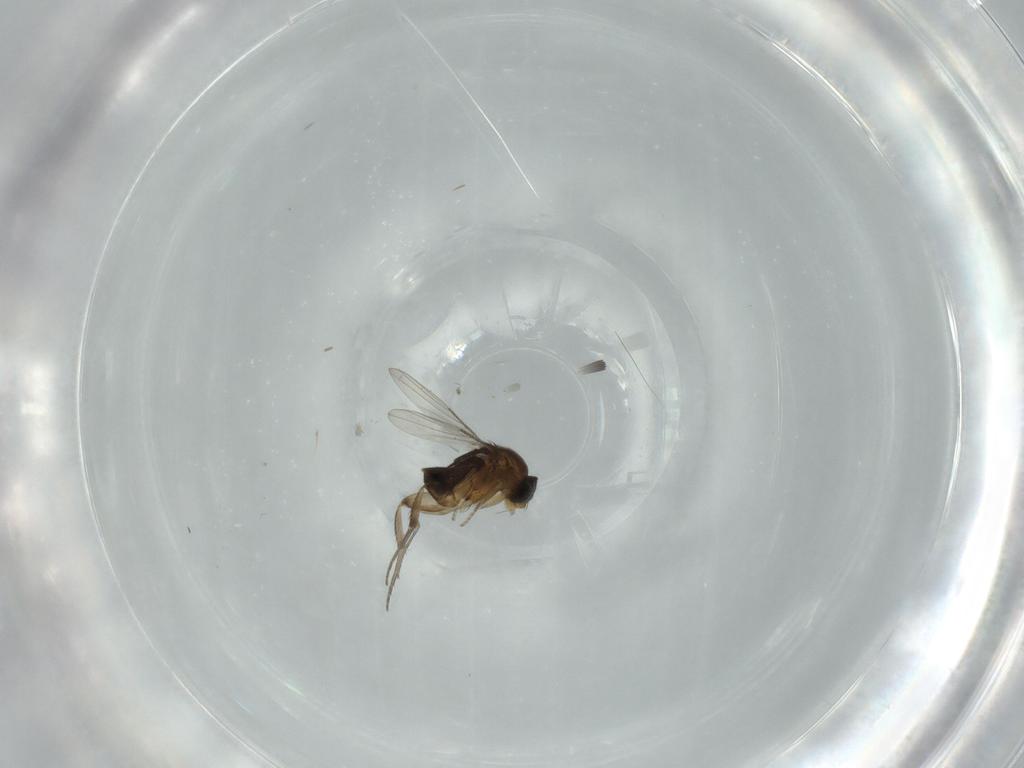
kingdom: Animalia
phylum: Arthropoda
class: Insecta
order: Diptera
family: Phoridae
